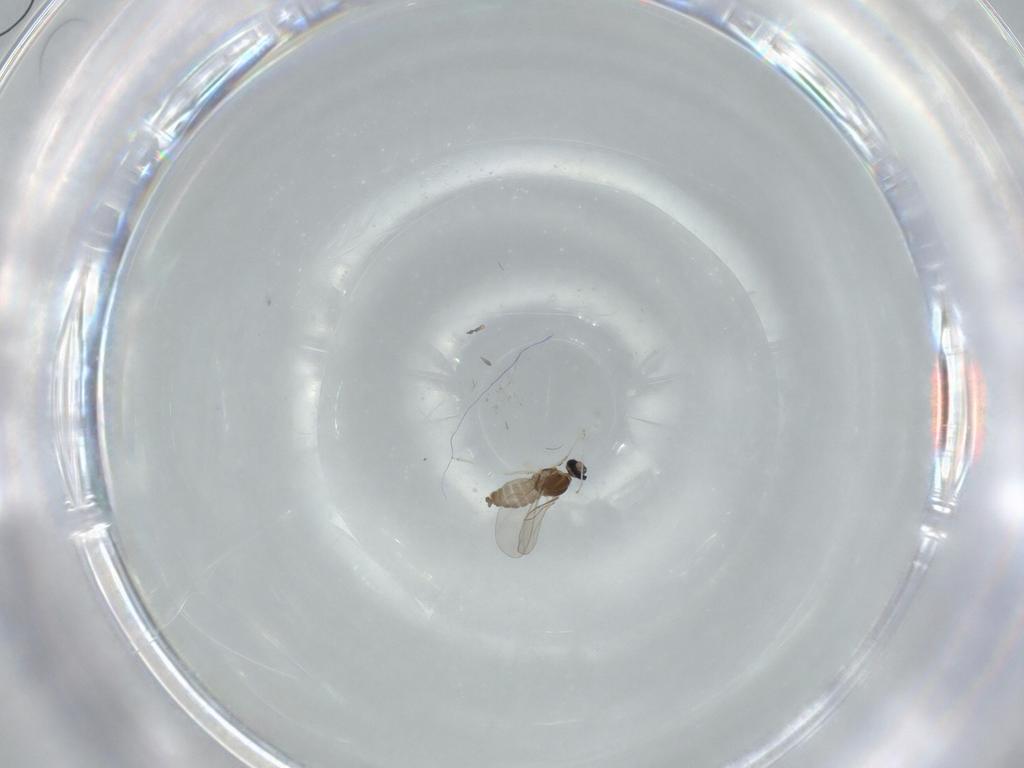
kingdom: Animalia
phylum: Arthropoda
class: Insecta
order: Diptera
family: Cecidomyiidae
